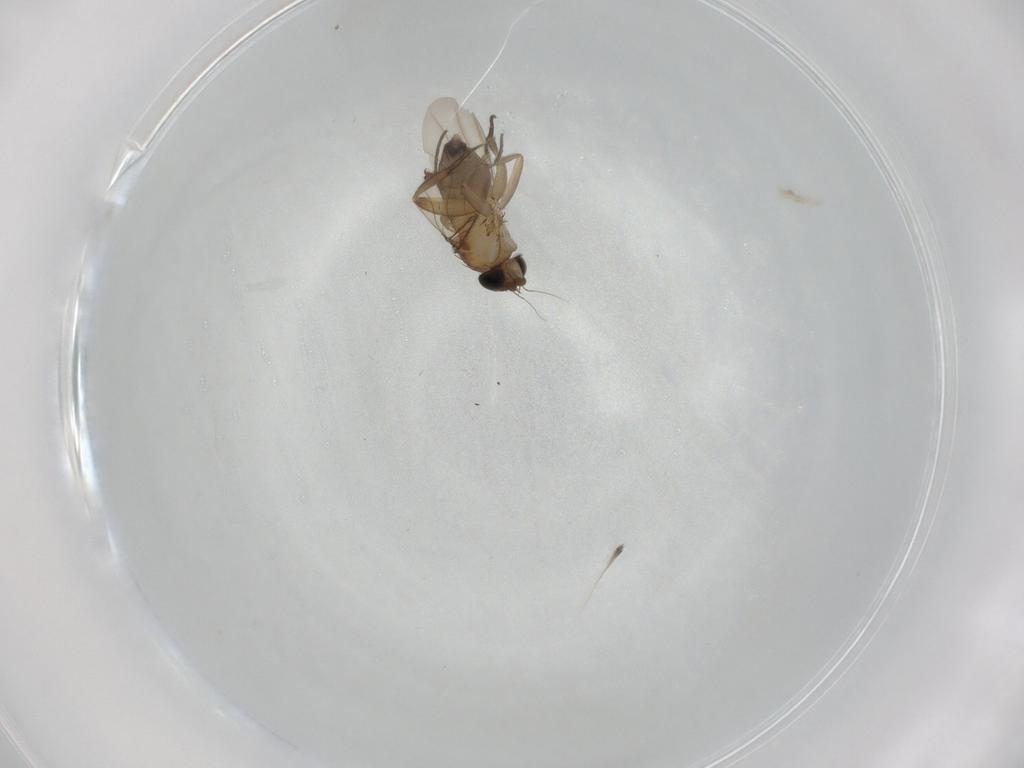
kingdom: Animalia
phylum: Arthropoda
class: Insecta
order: Diptera
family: Phoridae
